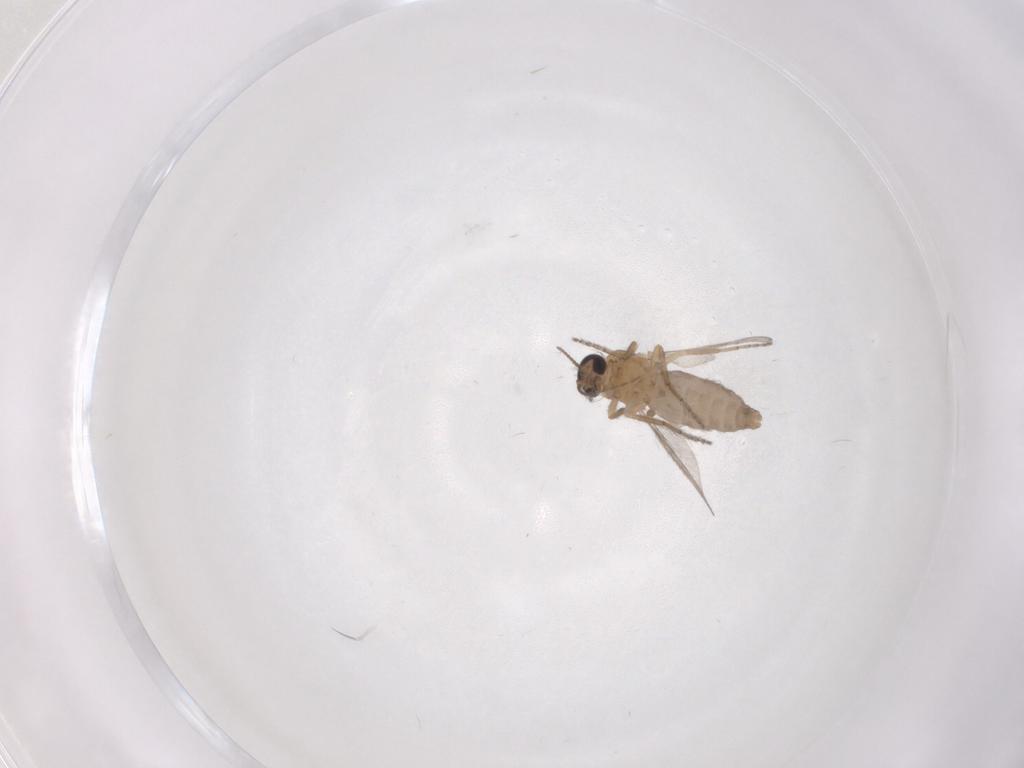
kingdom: Animalia
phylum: Arthropoda
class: Insecta
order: Diptera
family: Ceratopogonidae
